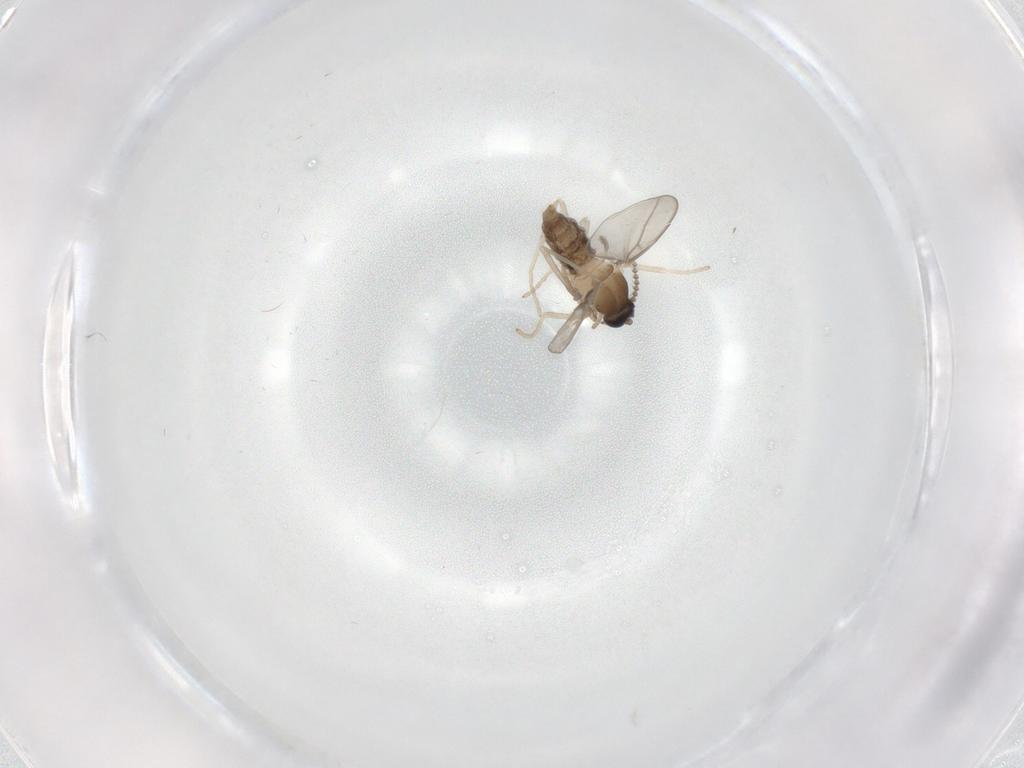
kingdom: Animalia
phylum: Arthropoda
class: Insecta
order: Diptera
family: Cecidomyiidae
